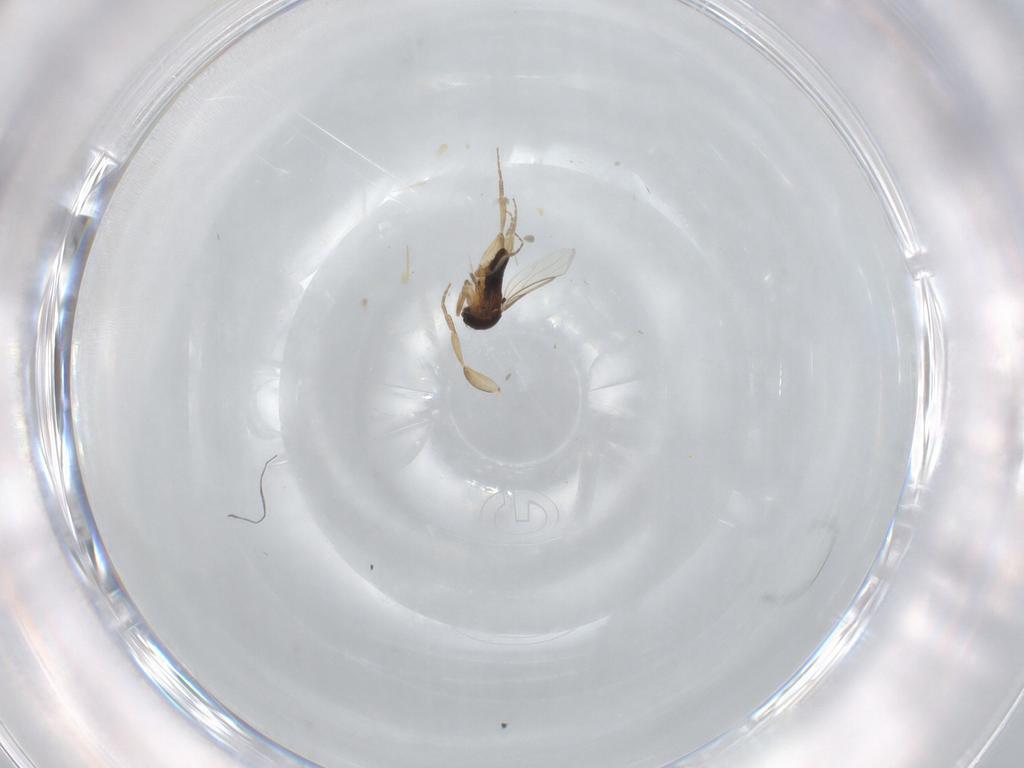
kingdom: Animalia
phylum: Arthropoda
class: Insecta
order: Diptera
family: Phoridae
